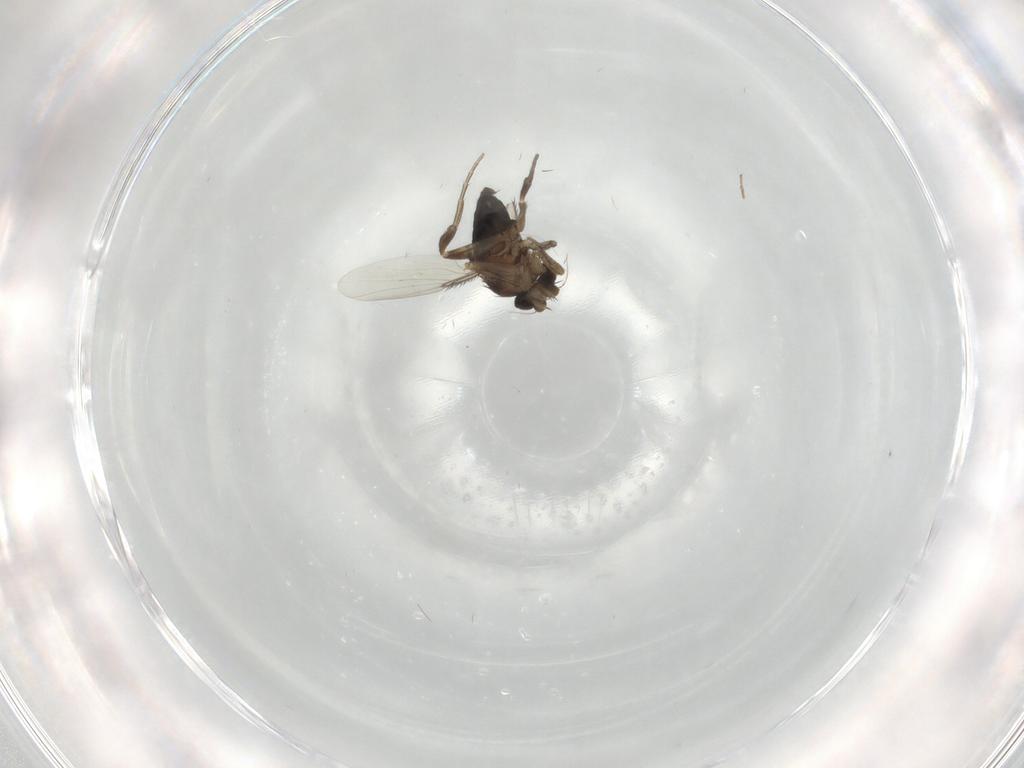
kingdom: Animalia
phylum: Arthropoda
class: Insecta
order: Diptera
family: Phoridae
